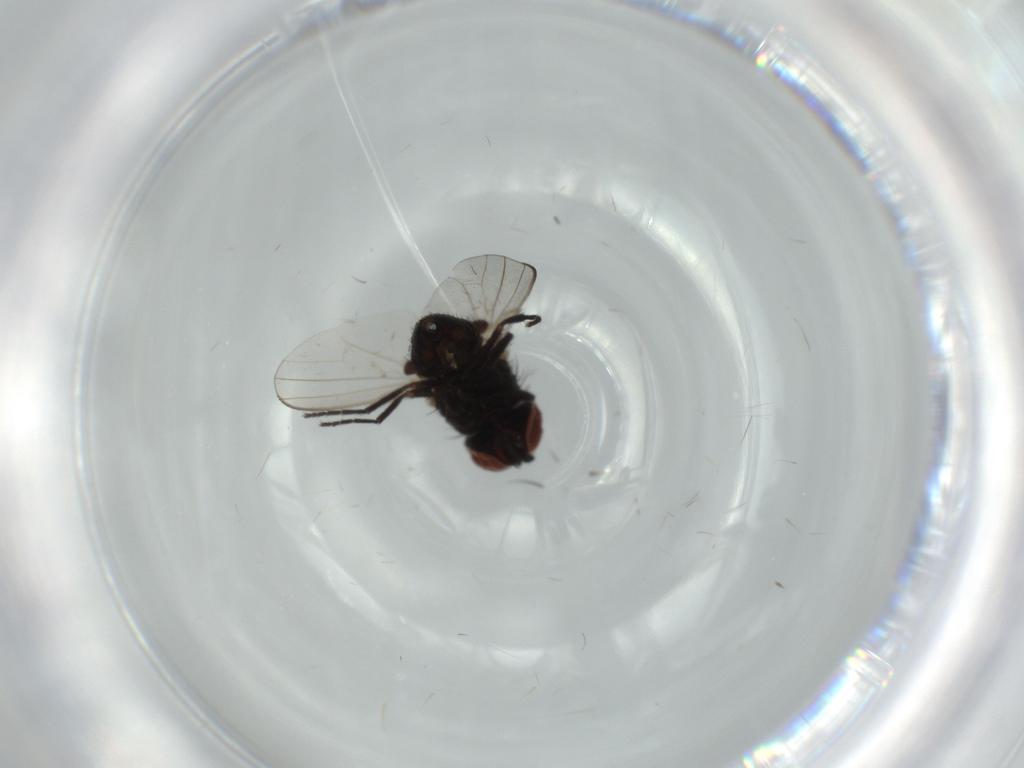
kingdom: Animalia
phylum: Arthropoda
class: Insecta
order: Diptera
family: Milichiidae
